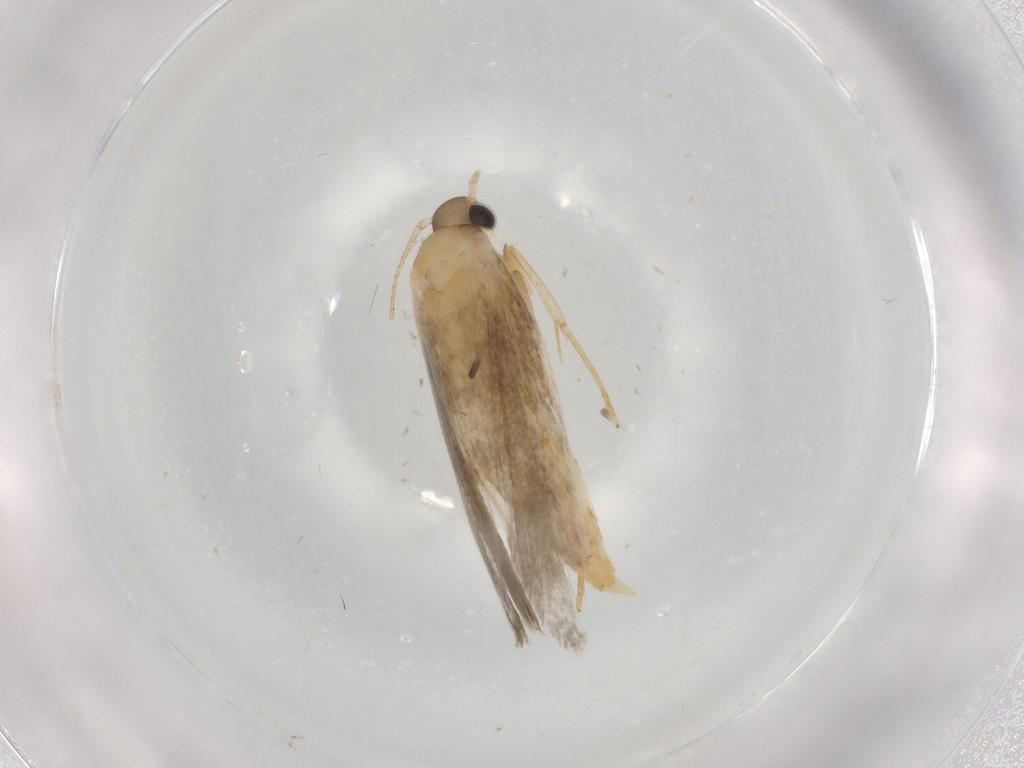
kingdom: Animalia
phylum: Arthropoda
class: Insecta
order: Lepidoptera
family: Autostichidae
